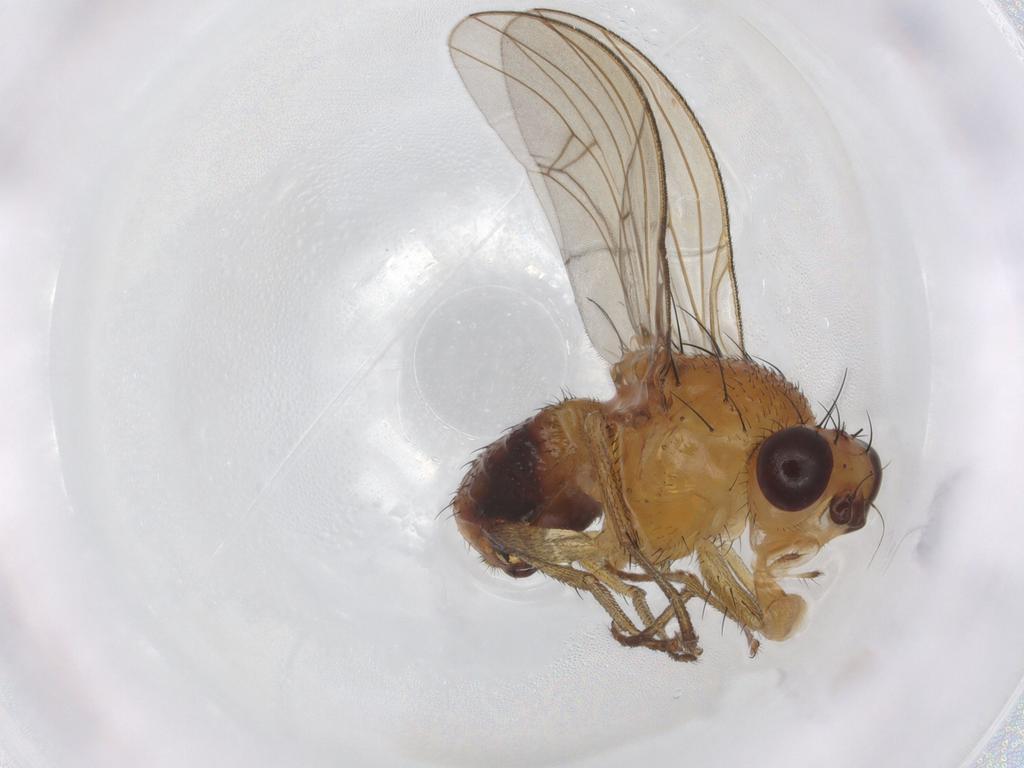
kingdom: Animalia
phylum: Arthropoda
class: Insecta
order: Diptera
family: Lauxaniidae
